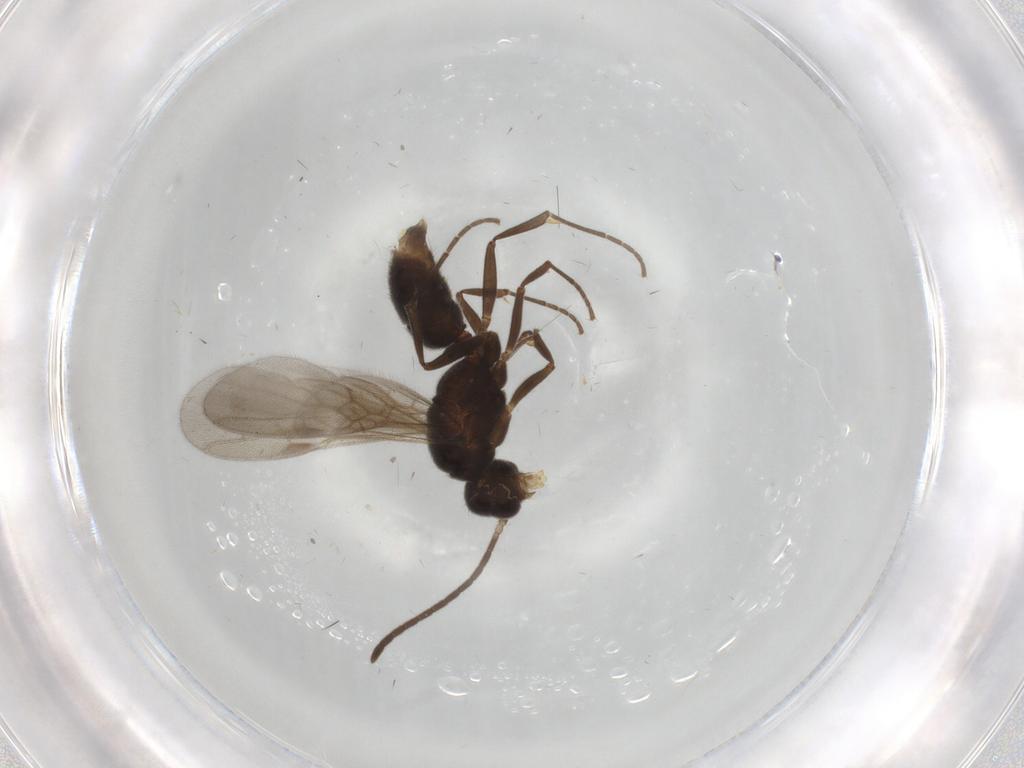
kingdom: Animalia
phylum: Arthropoda
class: Insecta
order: Hymenoptera
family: Formicidae
